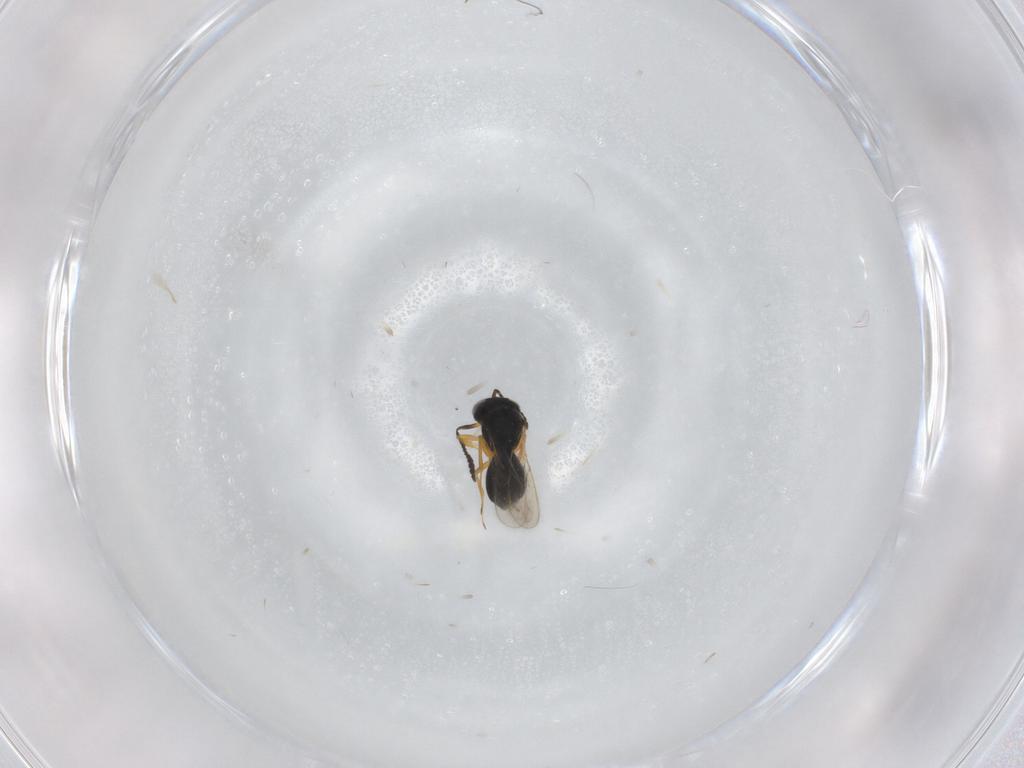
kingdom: Animalia
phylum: Arthropoda
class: Insecta
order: Hymenoptera
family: Scelionidae
